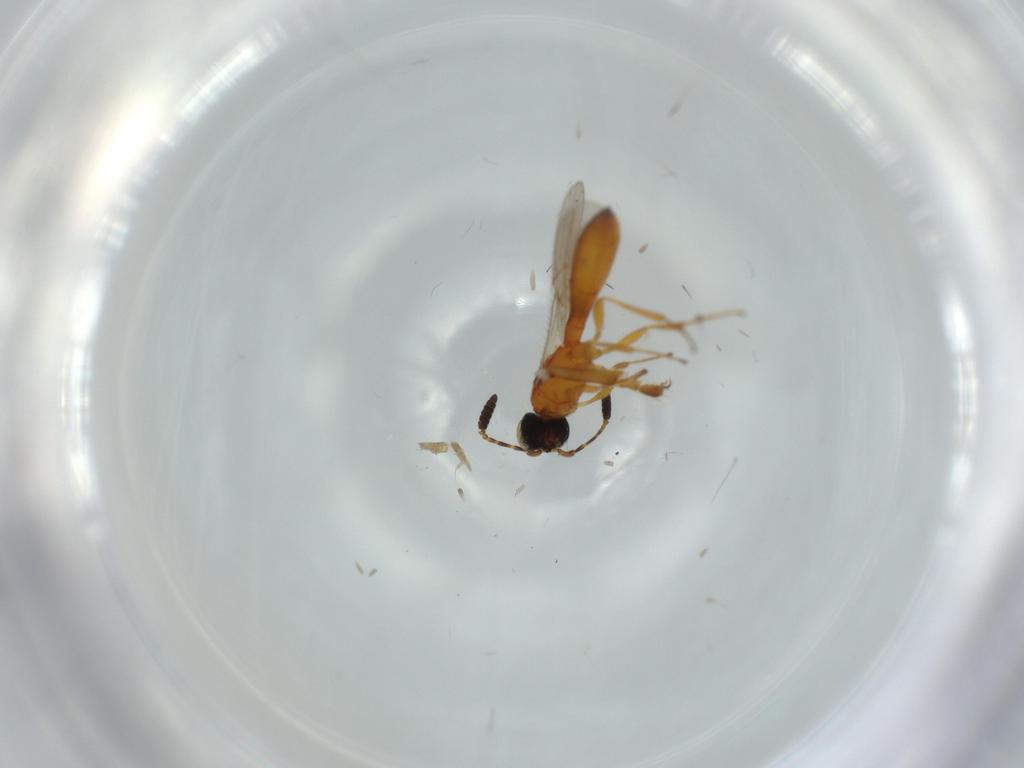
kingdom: Animalia
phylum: Arthropoda
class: Insecta
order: Hymenoptera
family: Scelionidae
